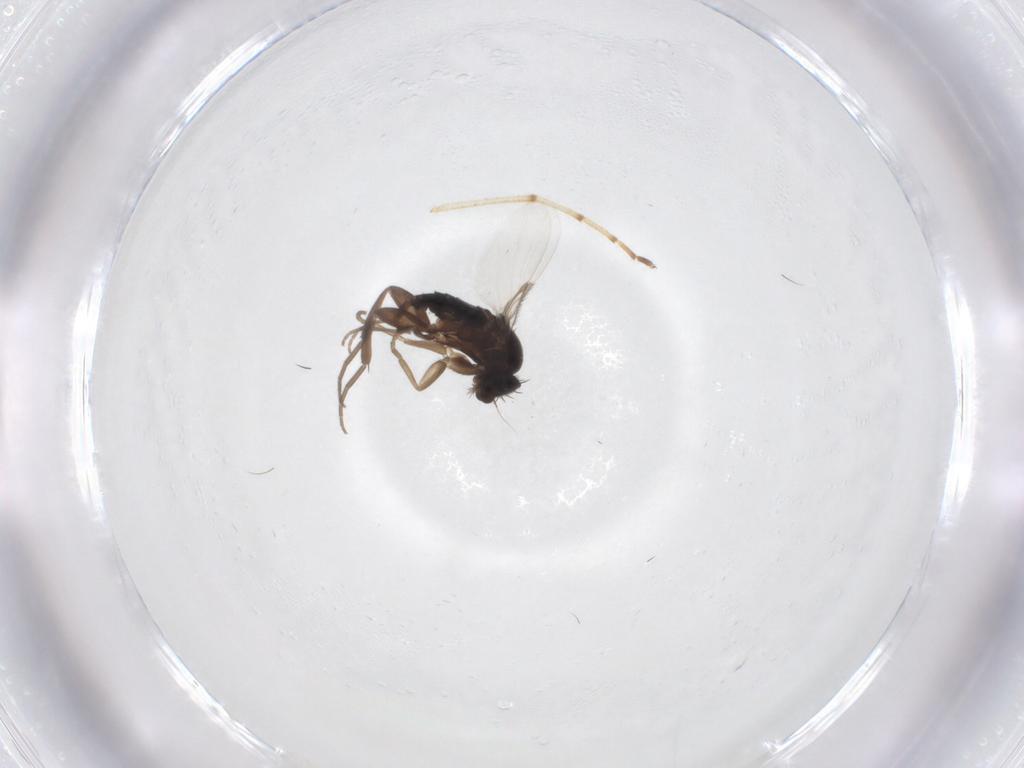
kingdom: Animalia
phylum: Arthropoda
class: Insecta
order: Diptera
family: Phoridae
